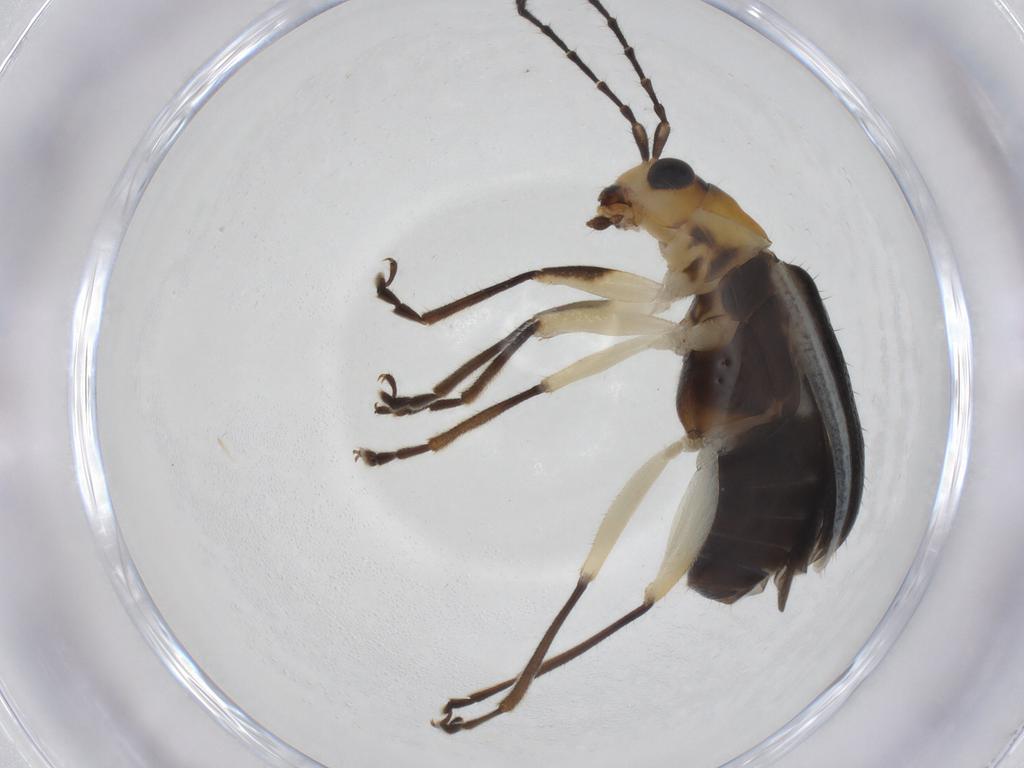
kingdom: Animalia
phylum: Arthropoda
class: Insecta
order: Coleoptera
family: Chrysomelidae
